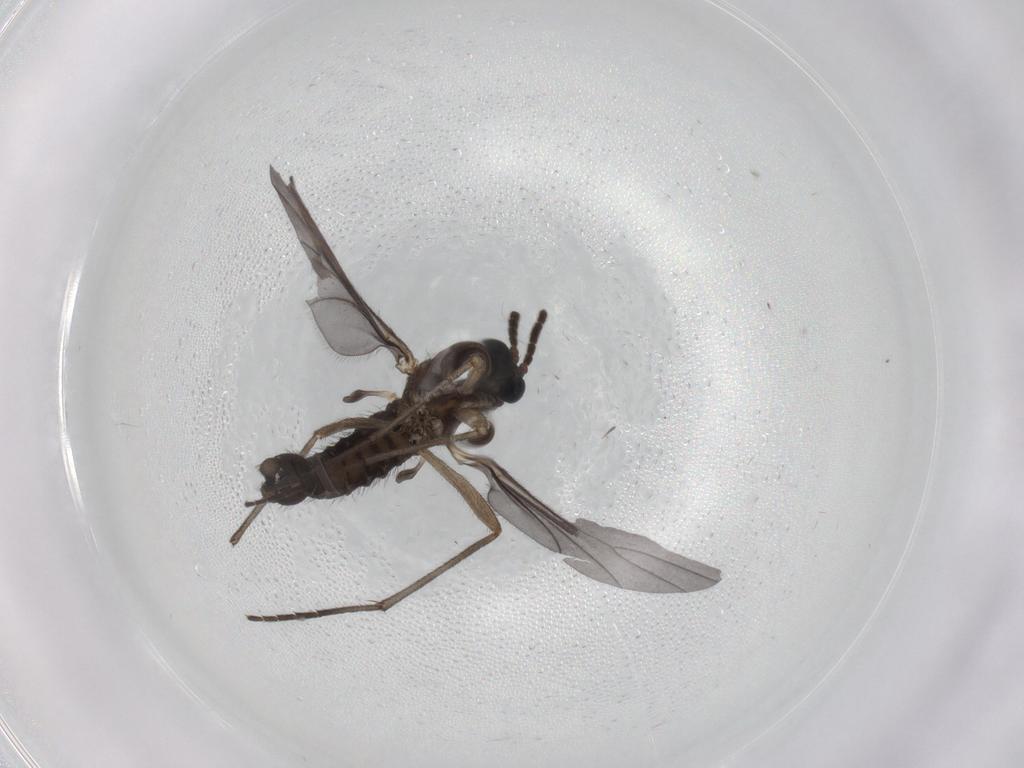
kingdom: Animalia
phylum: Arthropoda
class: Insecta
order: Diptera
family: Sciaridae
